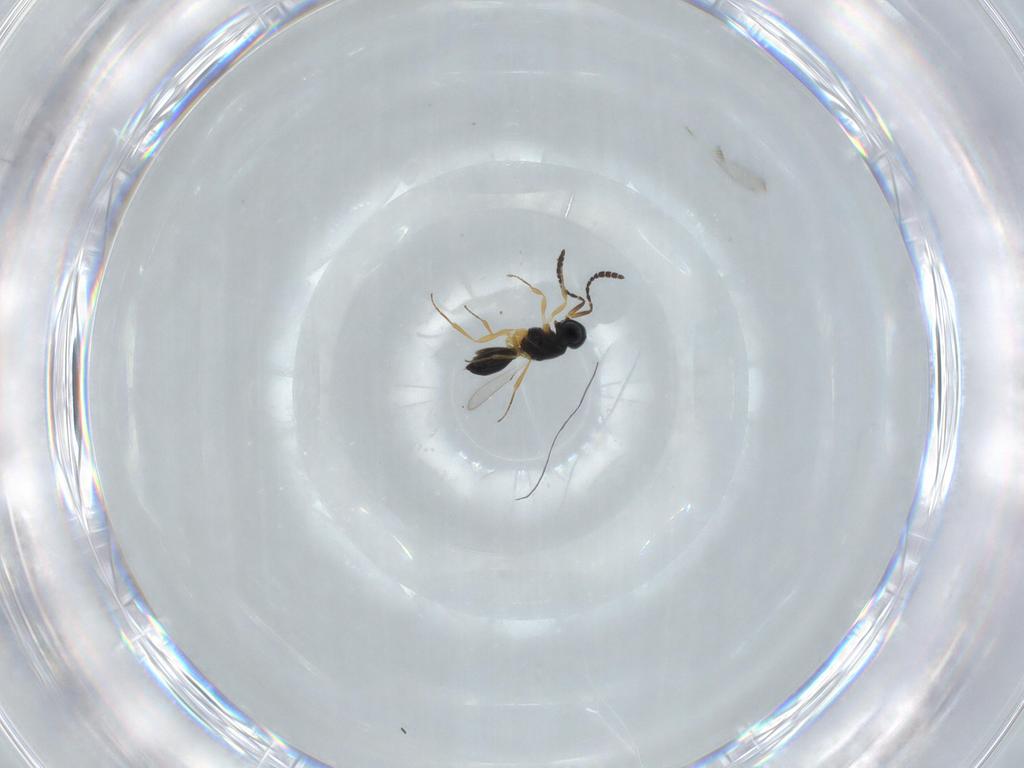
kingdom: Animalia
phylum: Arthropoda
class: Insecta
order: Hymenoptera
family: Scelionidae
